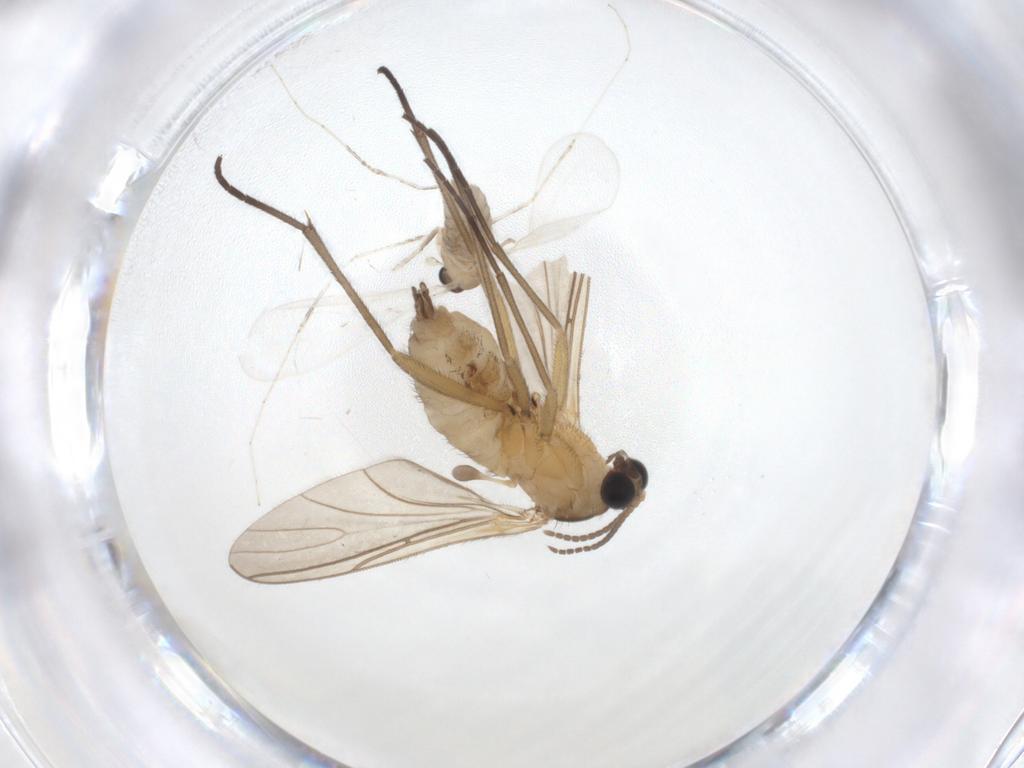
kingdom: Animalia
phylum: Arthropoda
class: Insecta
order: Diptera
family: Sciaridae
